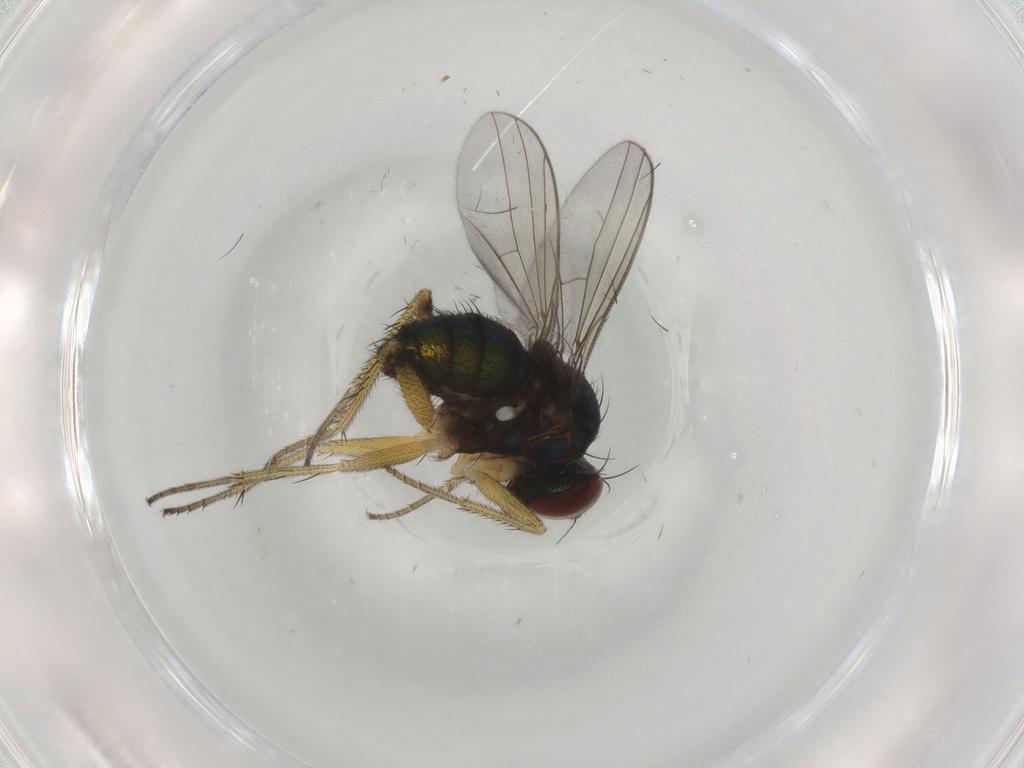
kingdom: Animalia
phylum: Arthropoda
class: Insecta
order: Diptera
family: Dolichopodidae
